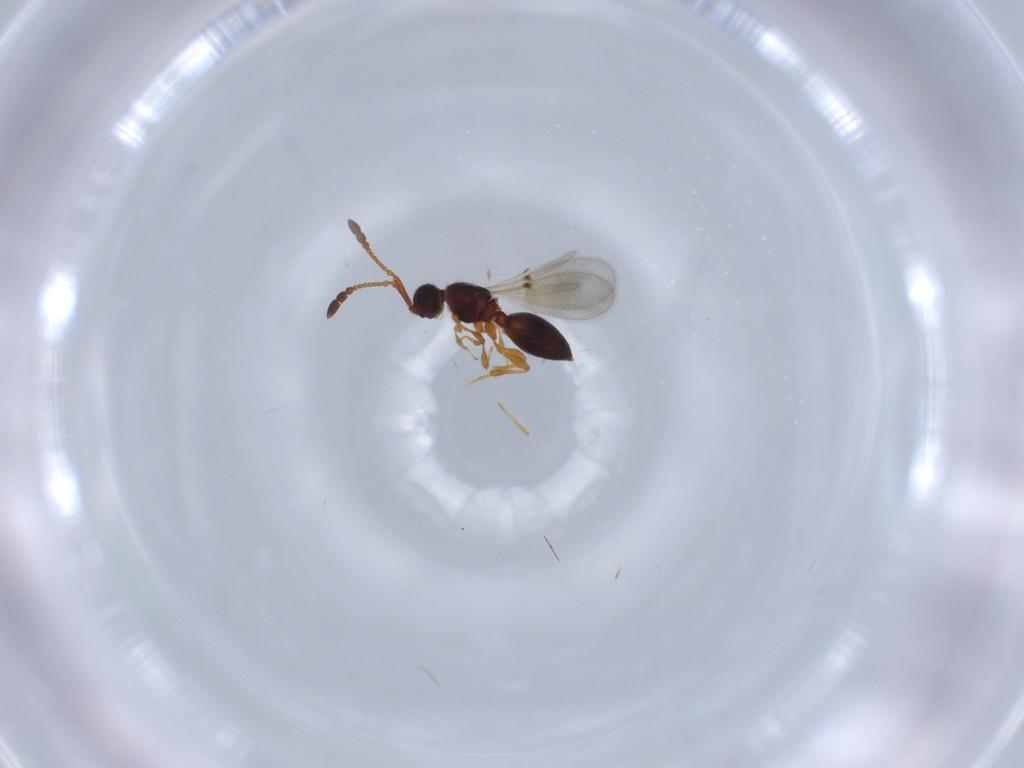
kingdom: Animalia
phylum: Arthropoda
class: Insecta
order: Hymenoptera
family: Diapriidae
